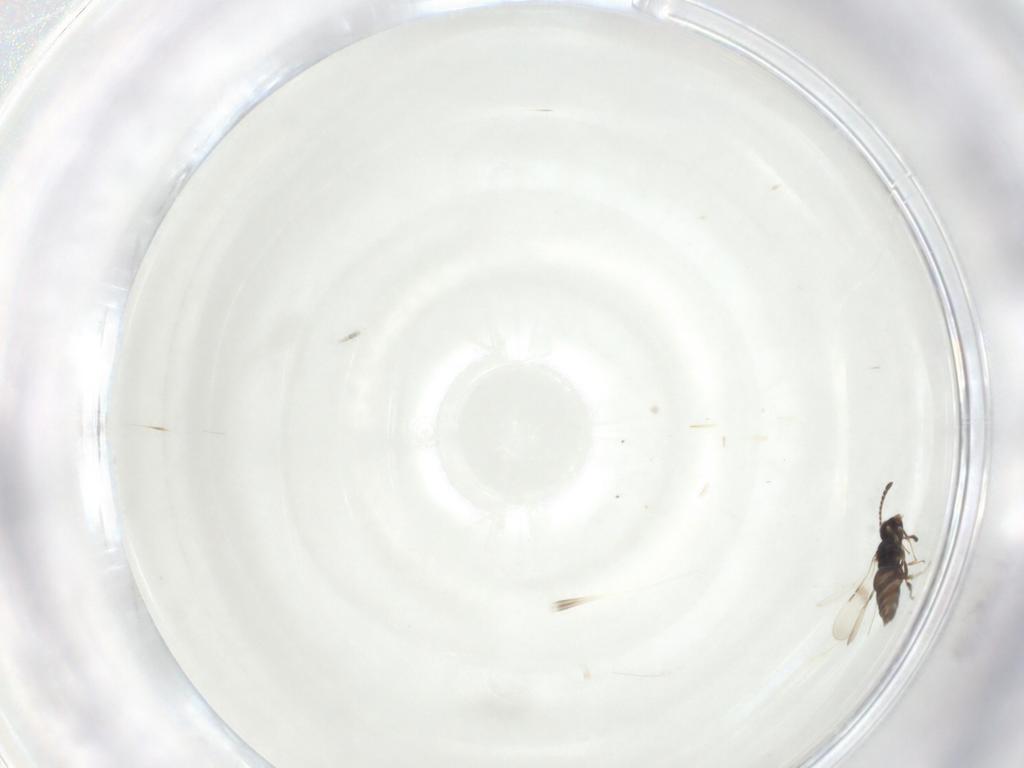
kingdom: Animalia
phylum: Arthropoda
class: Insecta
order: Hymenoptera
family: Ceraphronidae
